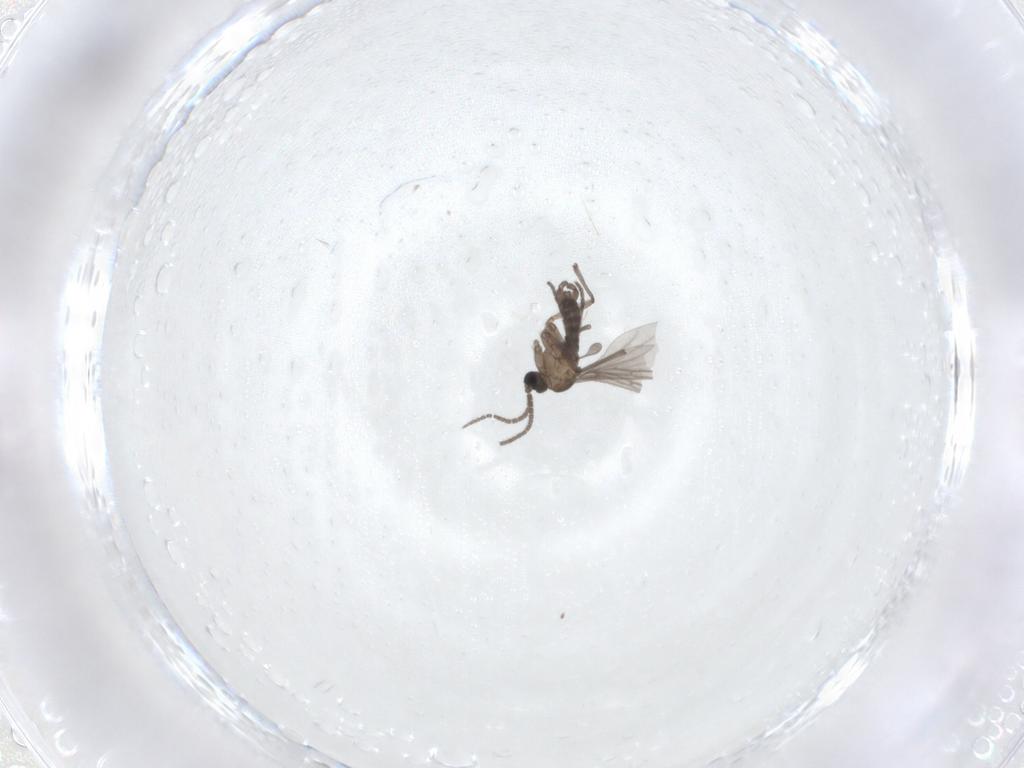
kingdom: Animalia
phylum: Arthropoda
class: Insecta
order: Diptera
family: Sciaridae
